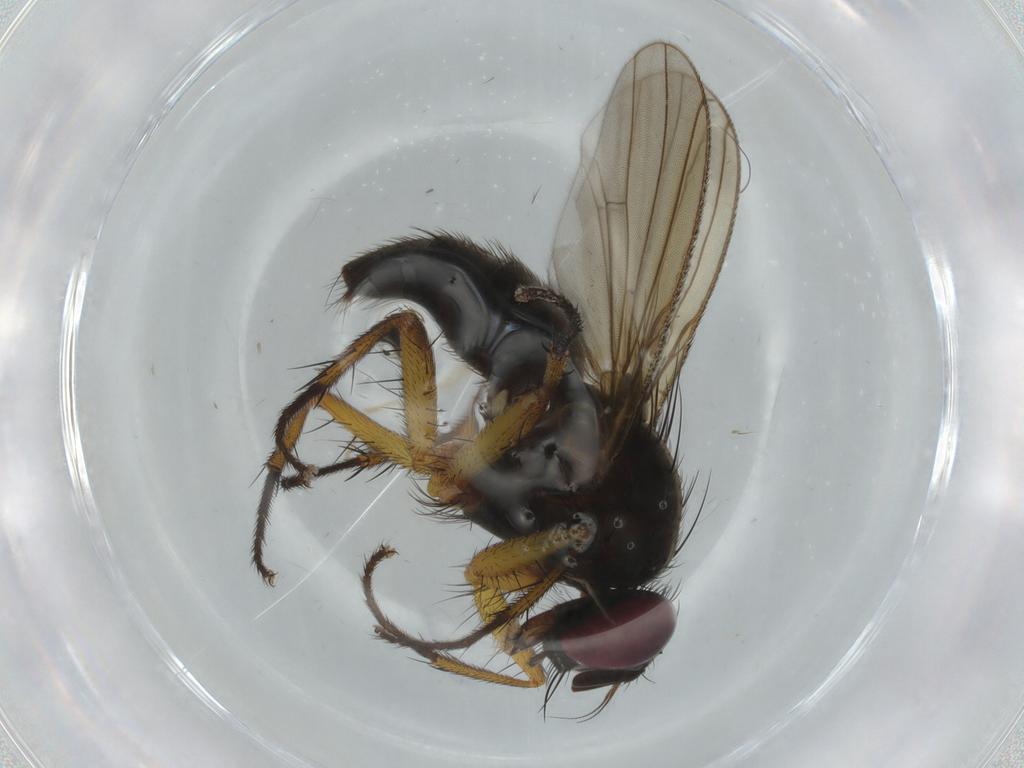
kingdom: Animalia
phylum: Arthropoda
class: Insecta
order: Diptera
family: Muscidae
